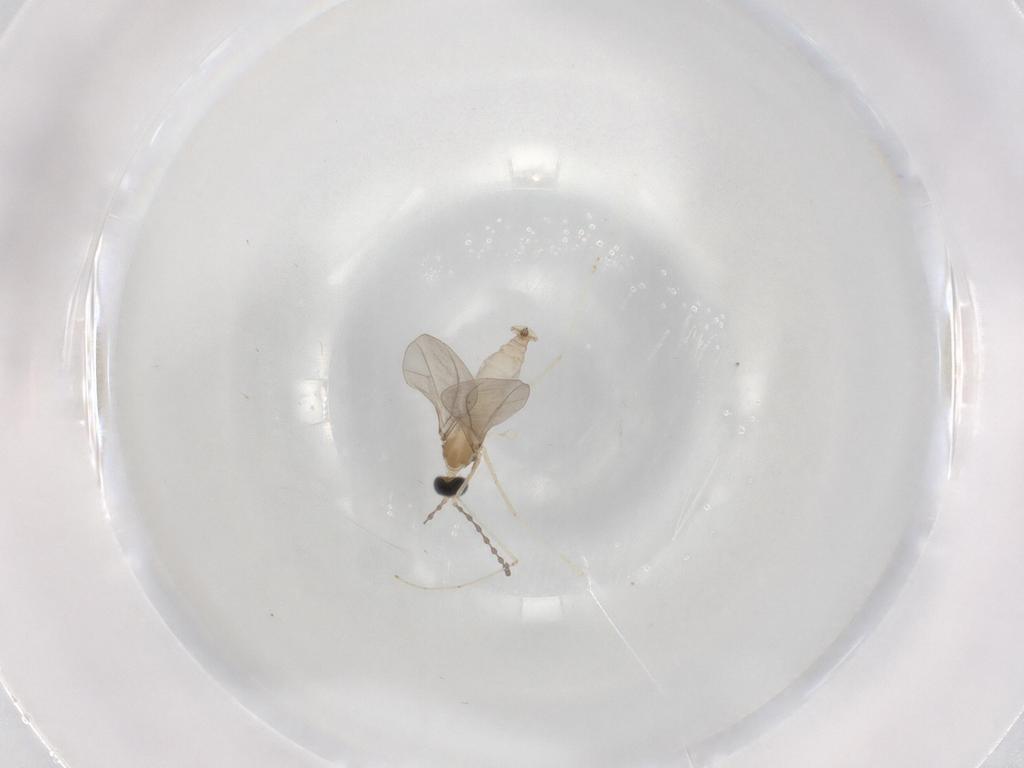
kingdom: Animalia
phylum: Arthropoda
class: Insecta
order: Diptera
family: Cecidomyiidae
